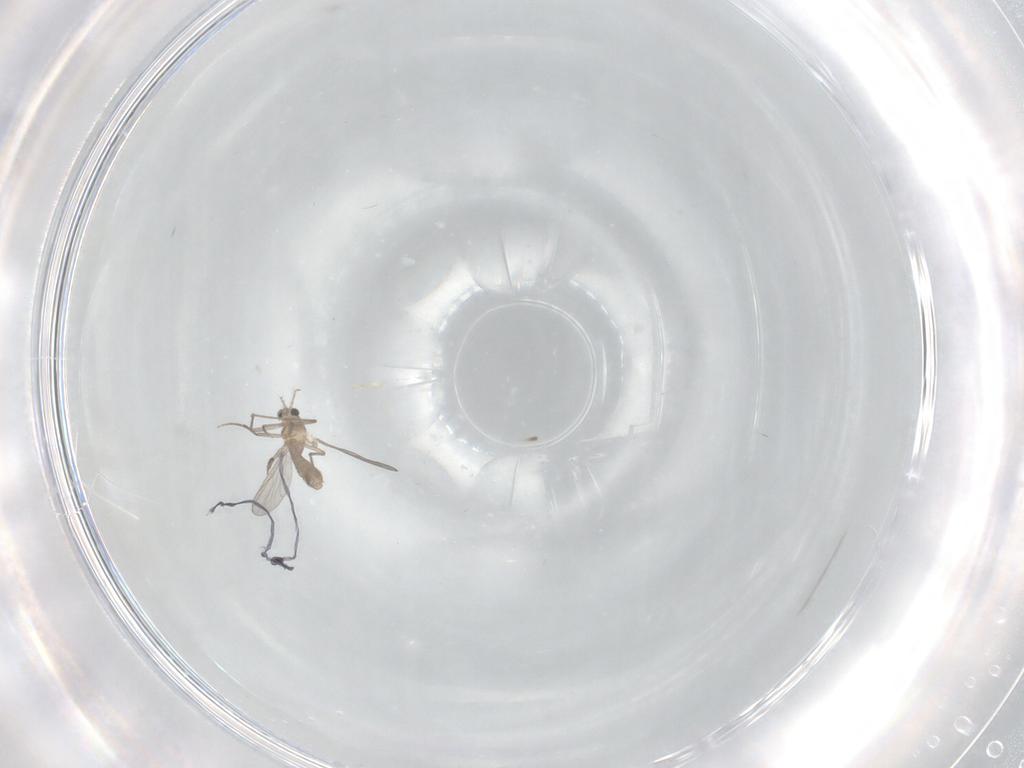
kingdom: Animalia
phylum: Arthropoda
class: Insecta
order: Diptera
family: Chironomidae
